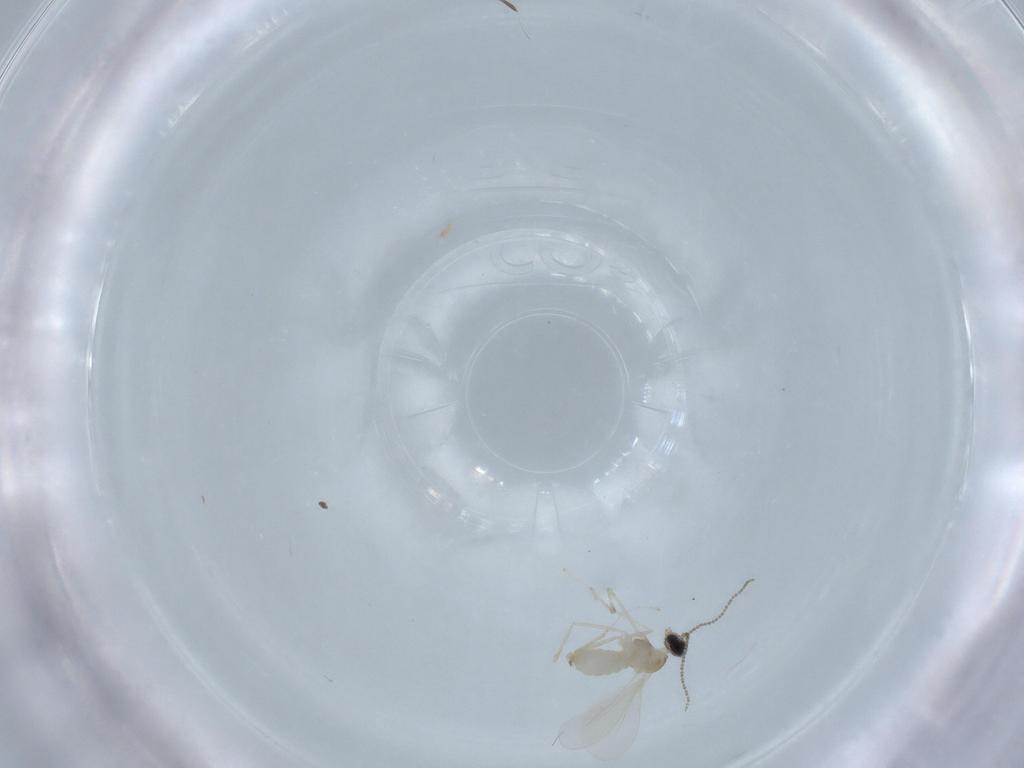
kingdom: Animalia
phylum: Arthropoda
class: Insecta
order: Diptera
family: Cecidomyiidae
